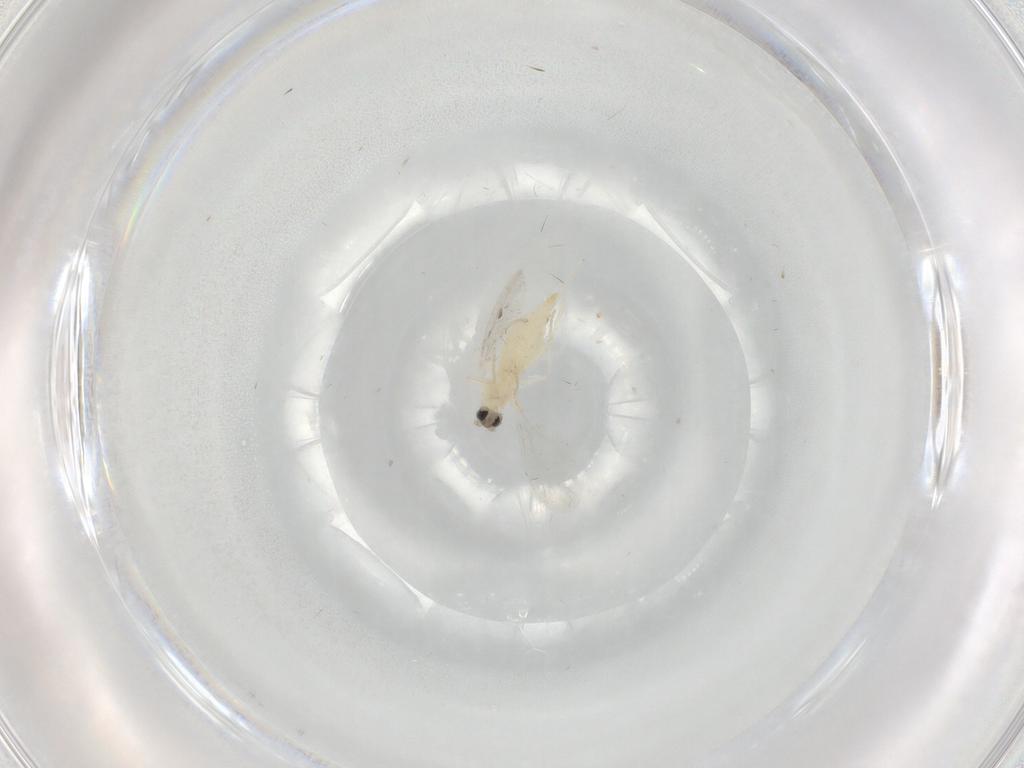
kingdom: Animalia
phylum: Arthropoda
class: Insecta
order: Diptera
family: Cecidomyiidae
